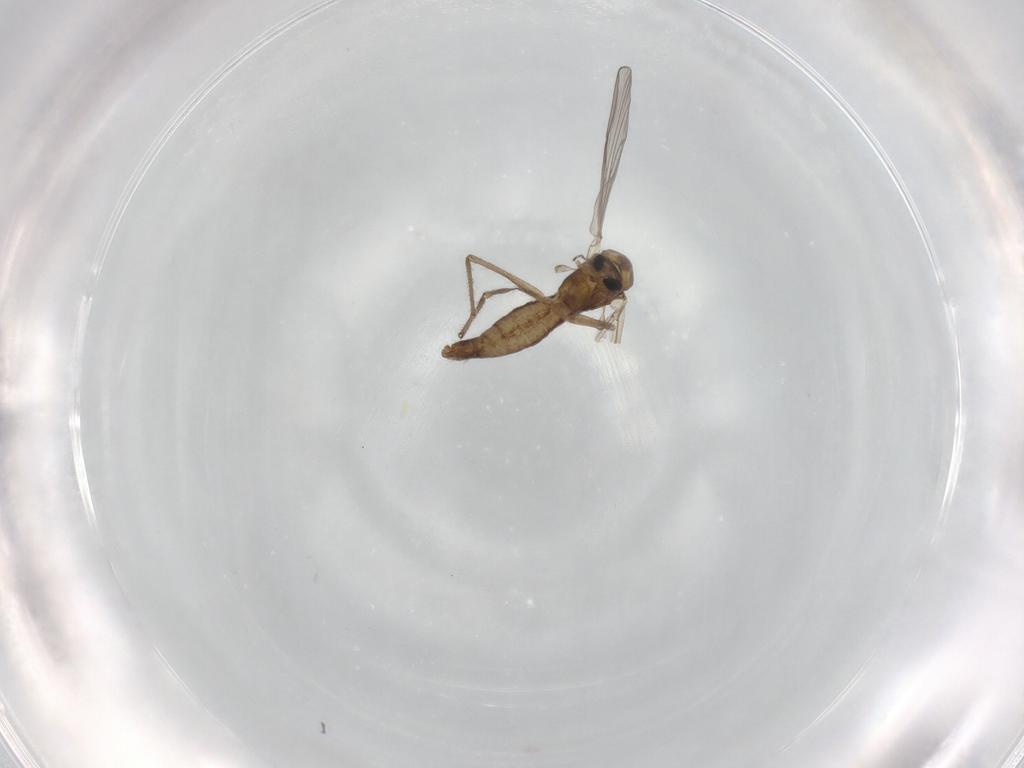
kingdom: Animalia
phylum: Arthropoda
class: Insecta
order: Diptera
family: Chironomidae
